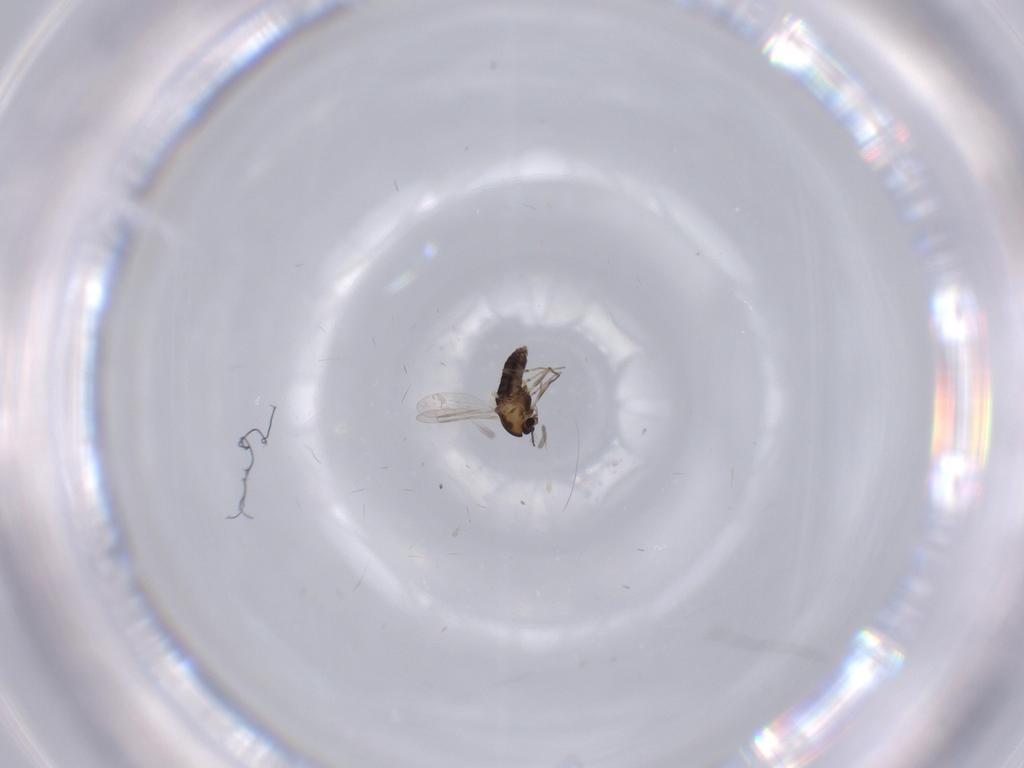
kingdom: Animalia
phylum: Arthropoda
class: Insecta
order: Diptera
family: Chironomidae
